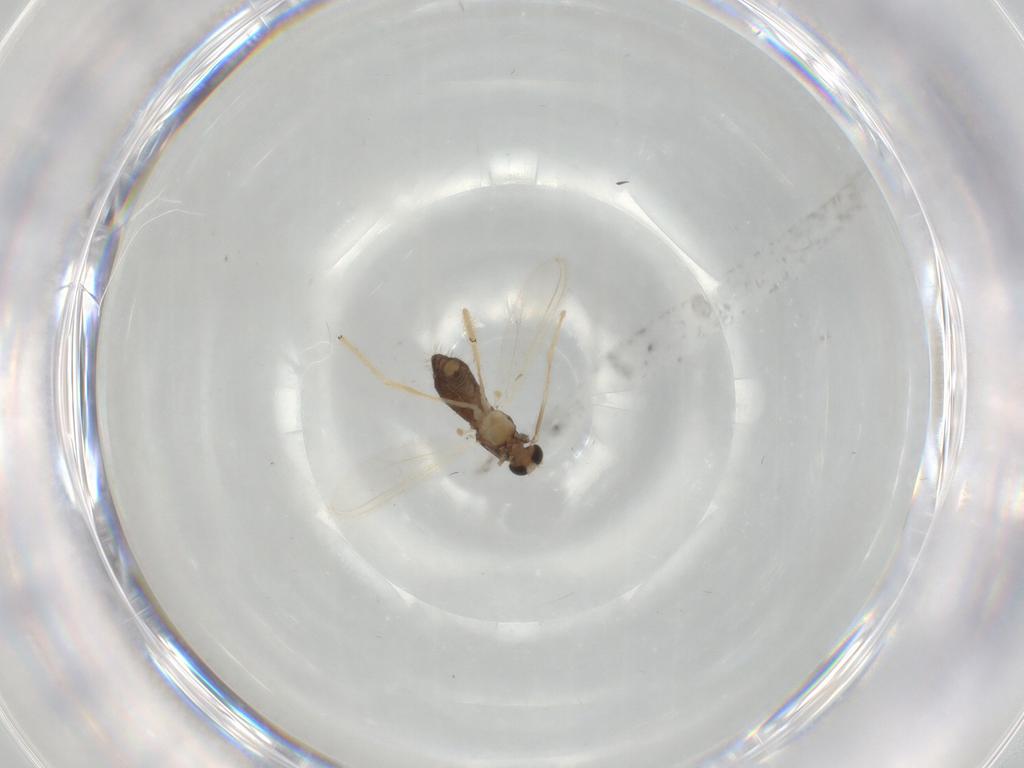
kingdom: Animalia
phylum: Arthropoda
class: Insecta
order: Diptera
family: Chironomidae
